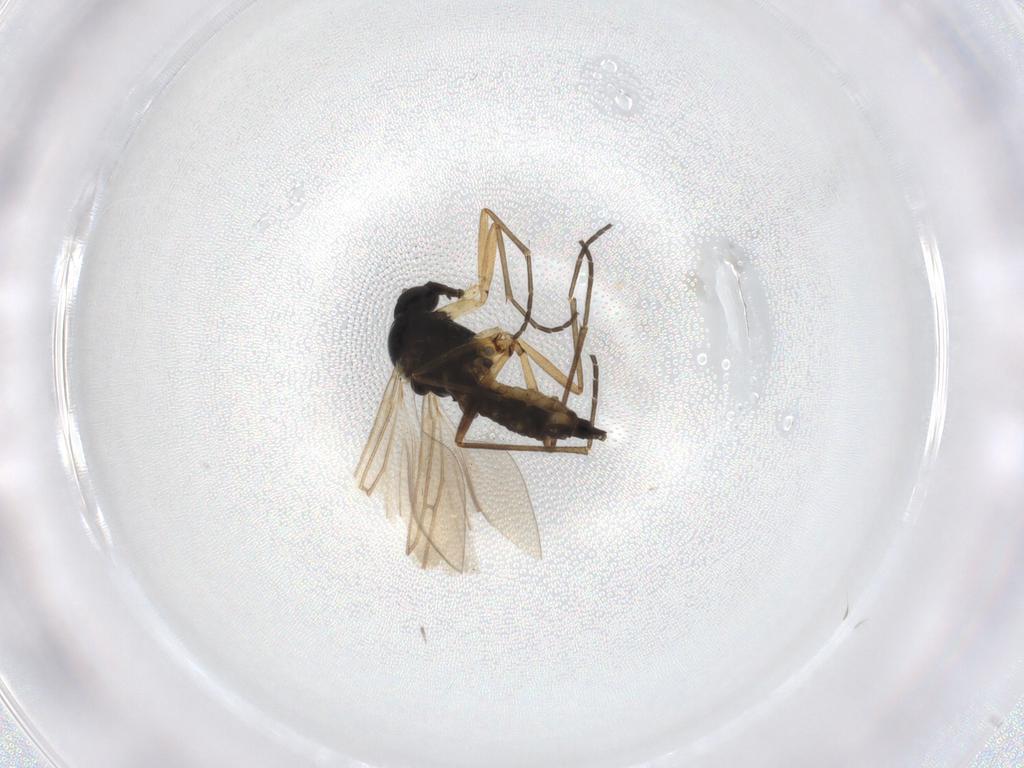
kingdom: Animalia
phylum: Arthropoda
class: Insecta
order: Diptera
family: Sciaridae
